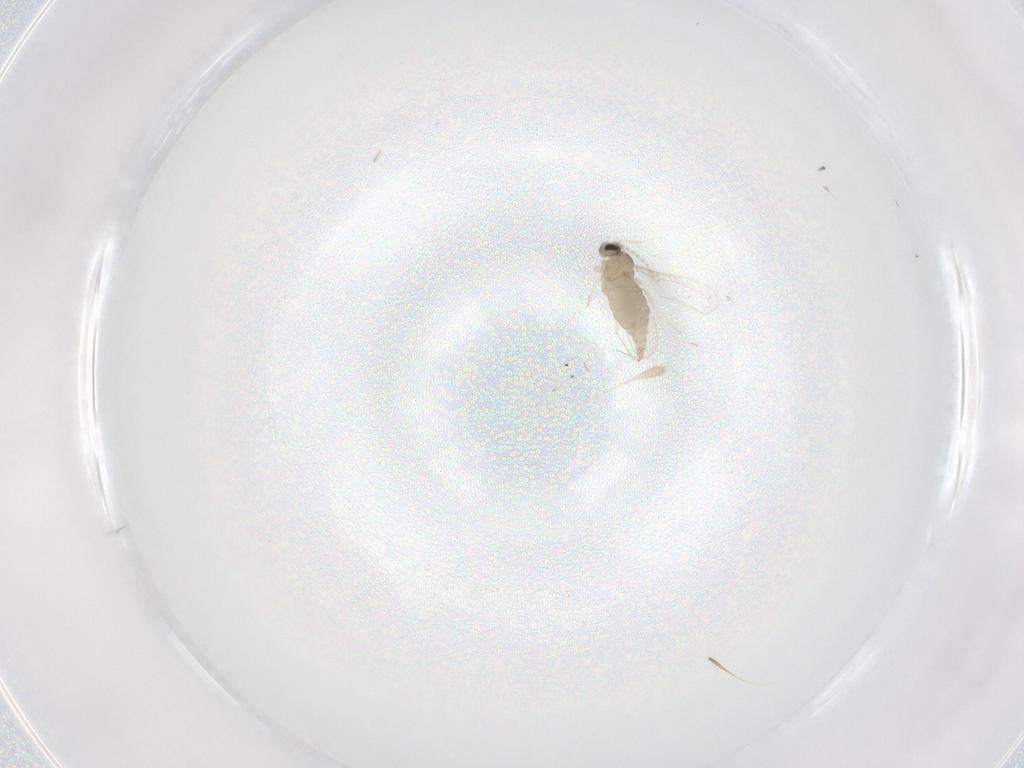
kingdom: Animalia
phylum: Arthropoda
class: Insecta
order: Diptera
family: Cecidomyiidae
